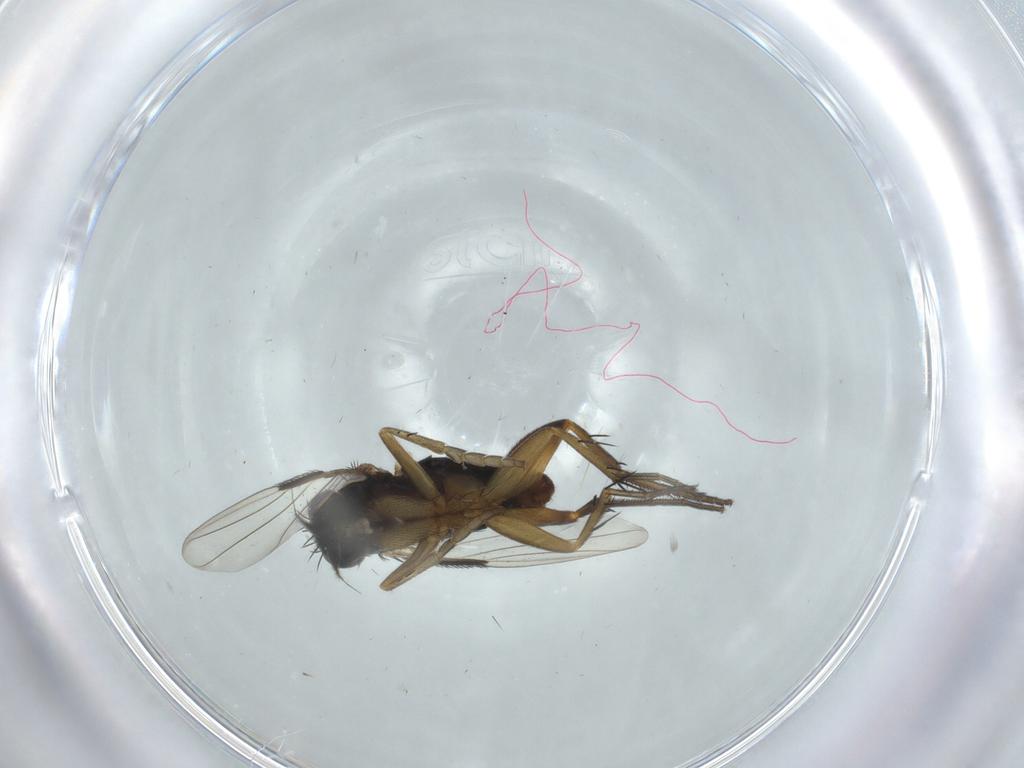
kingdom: Animalia
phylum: Arthropoda
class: Insecta
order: Diptera
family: Phoridae
